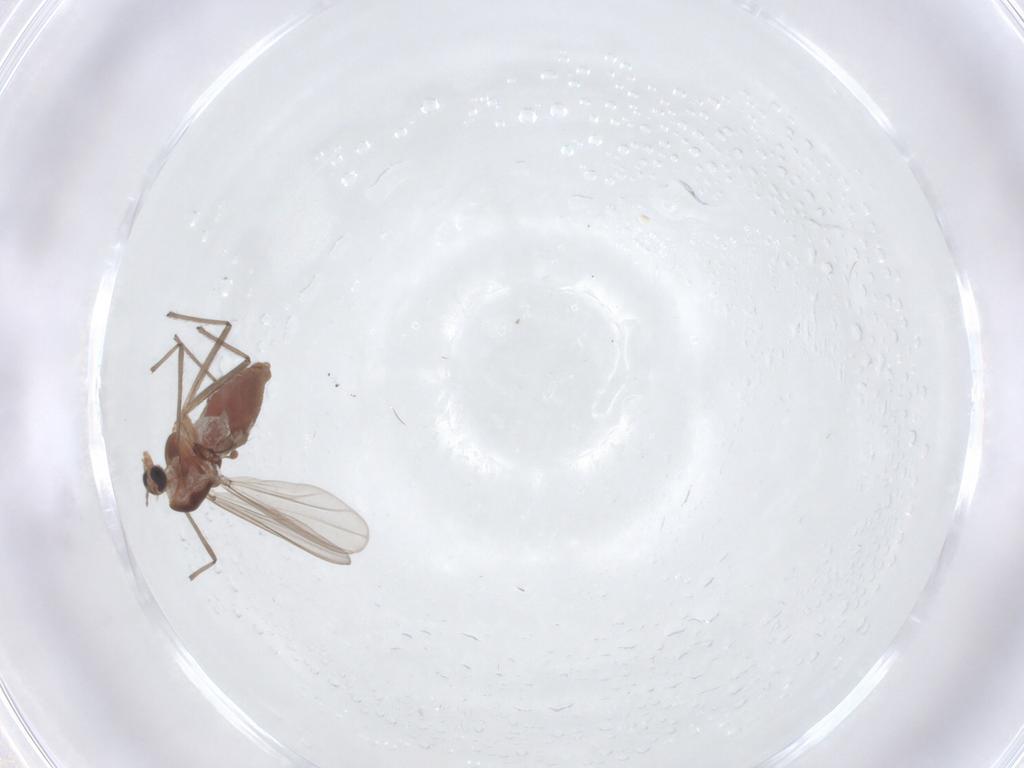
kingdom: Animalia
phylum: Arthropoda
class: Insecta
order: Diptera
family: Chironomidae
